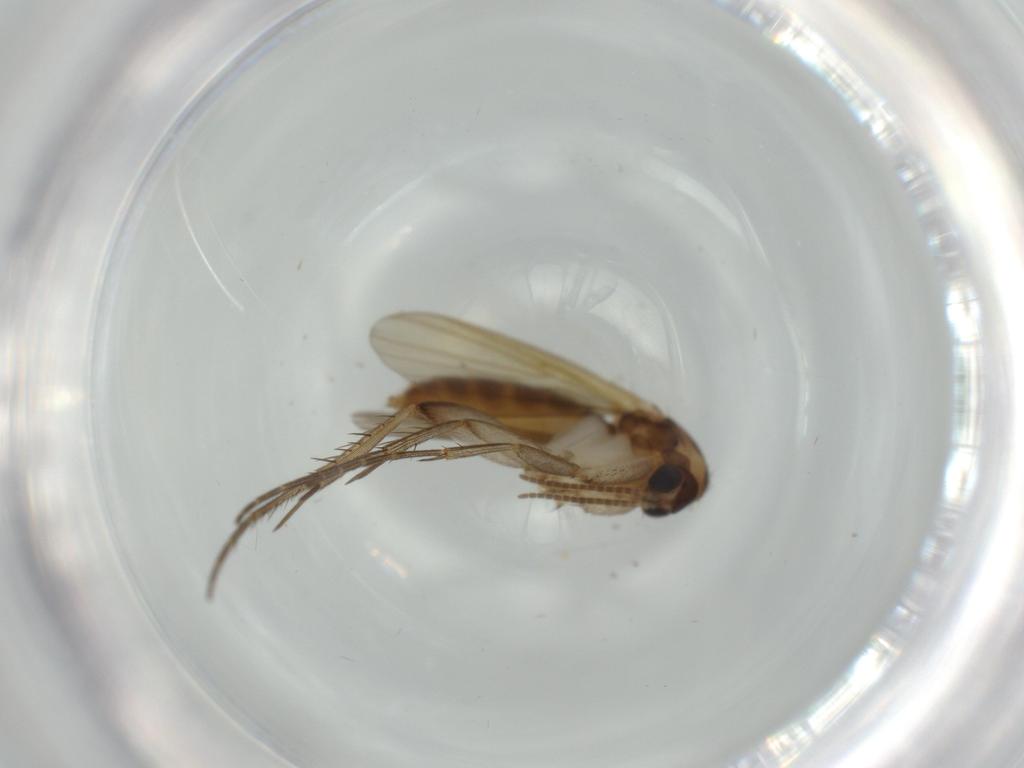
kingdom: Animalia
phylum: Arthropoda
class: Insecta
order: Diptera
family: Mycetophilidae
